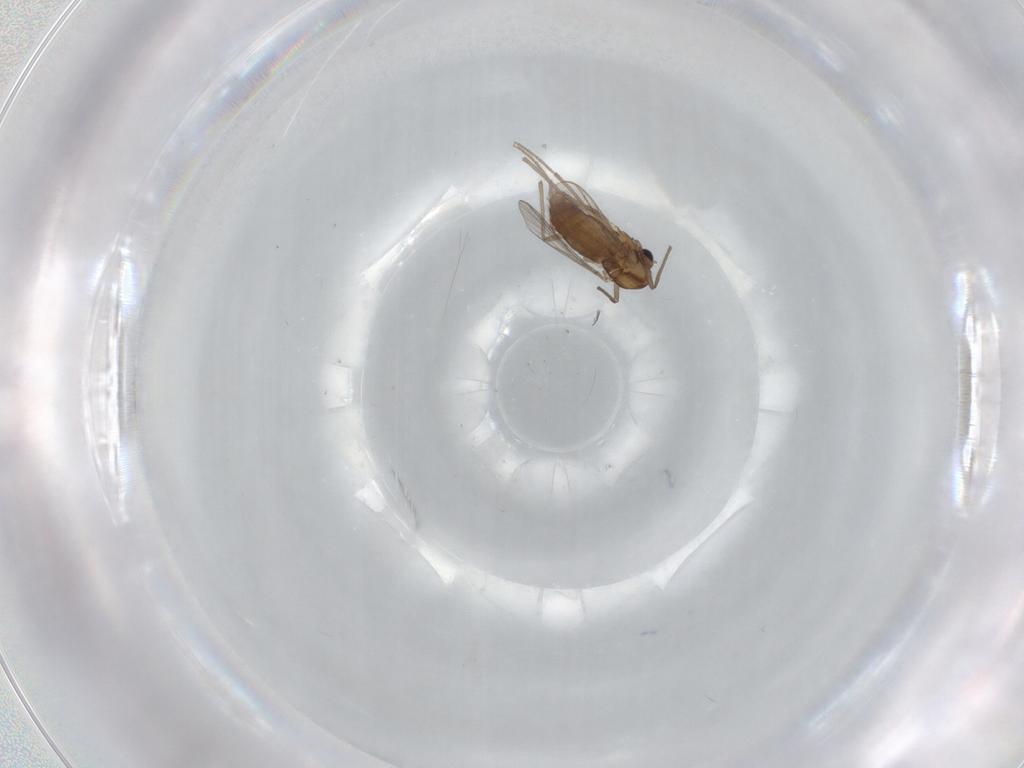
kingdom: Animalia
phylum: Arthropoda
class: Insecta
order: Diptera
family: Chironomidae
